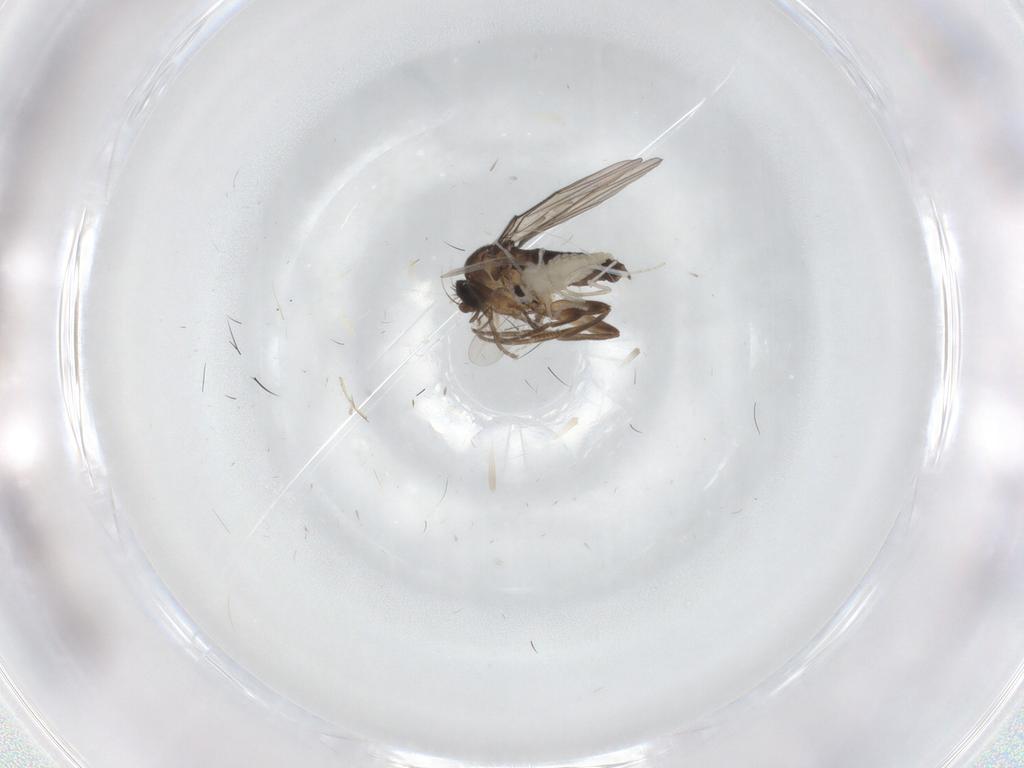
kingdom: Animalia
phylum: Arthropoda
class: Insecta
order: Diptera
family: Cecidomyiidae
